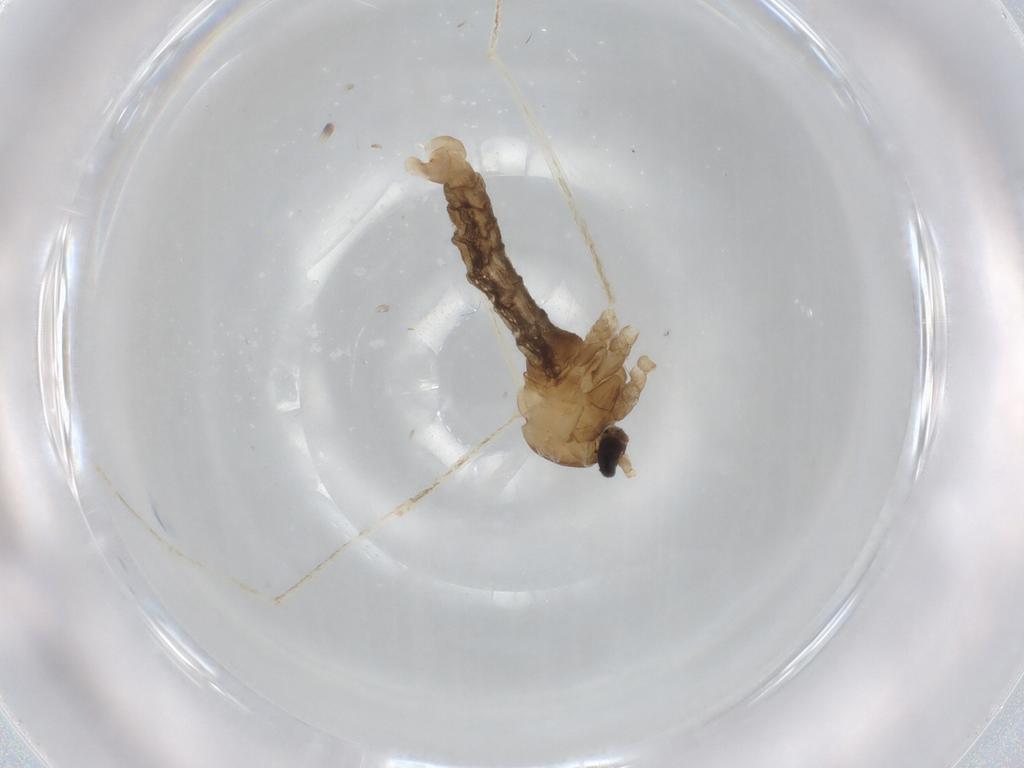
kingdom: Animalia
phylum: Arthropoda
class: Insecta
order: Diptera
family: Cecidomyiidae
